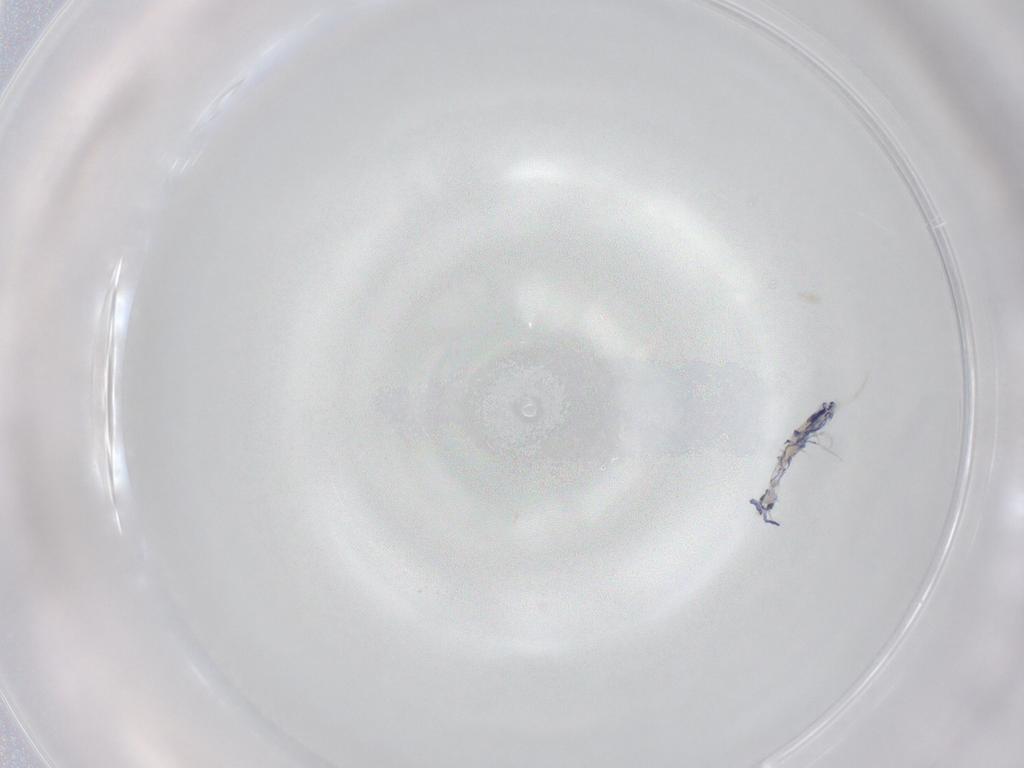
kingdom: Animalia
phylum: Arthropoda
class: Collembola
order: Entomobryomorpha
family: Entomobryidae
